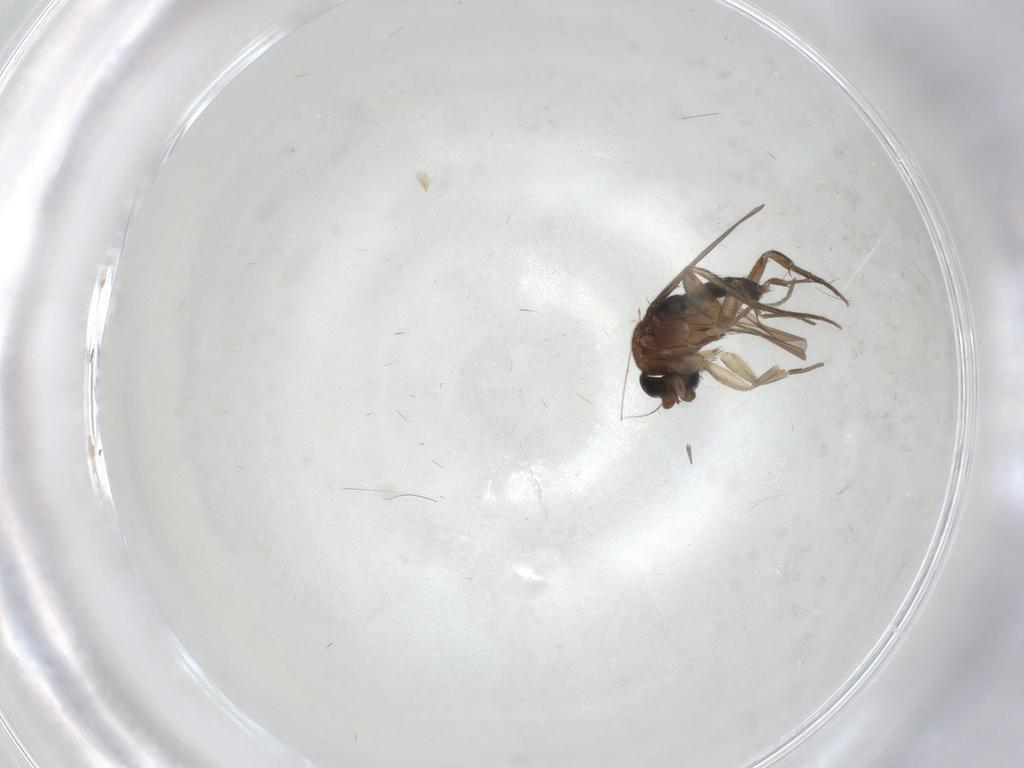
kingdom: Animalia
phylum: Arthropoda
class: Insecta
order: Diptera
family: Phoridae
